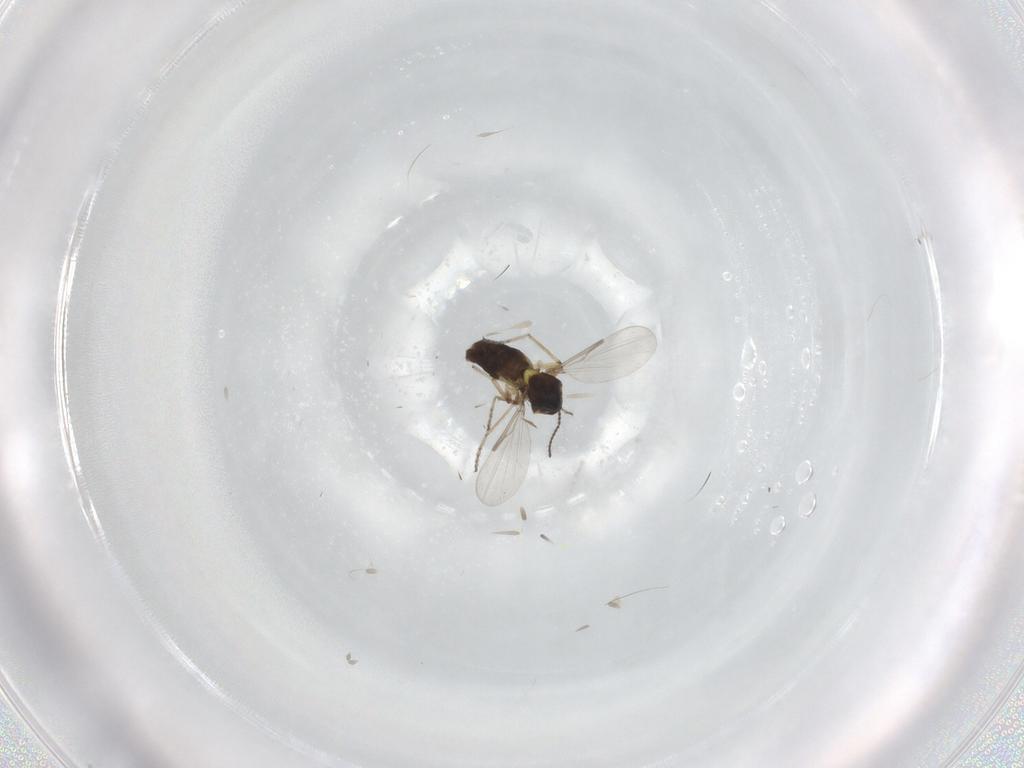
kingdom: Animalia
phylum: Arthropoda
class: Insecta
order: Diptera
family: Ceratopogonidae
